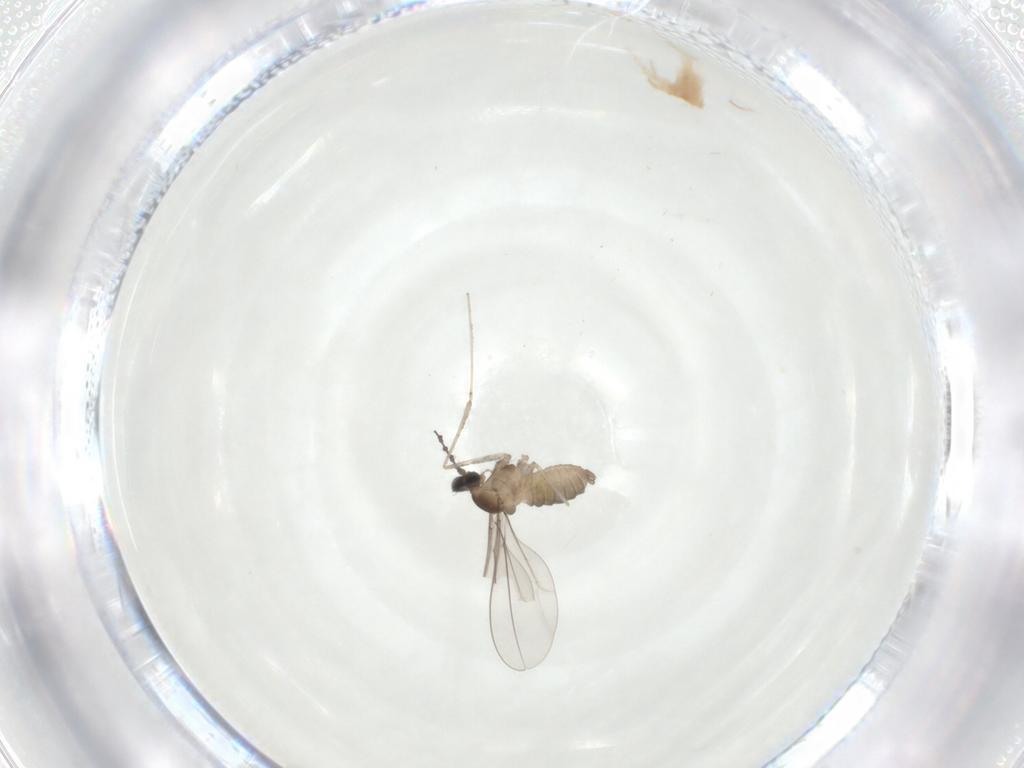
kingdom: Animalia
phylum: Arthropoda
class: Insecta
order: Diptera
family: Cecidomyiidae
